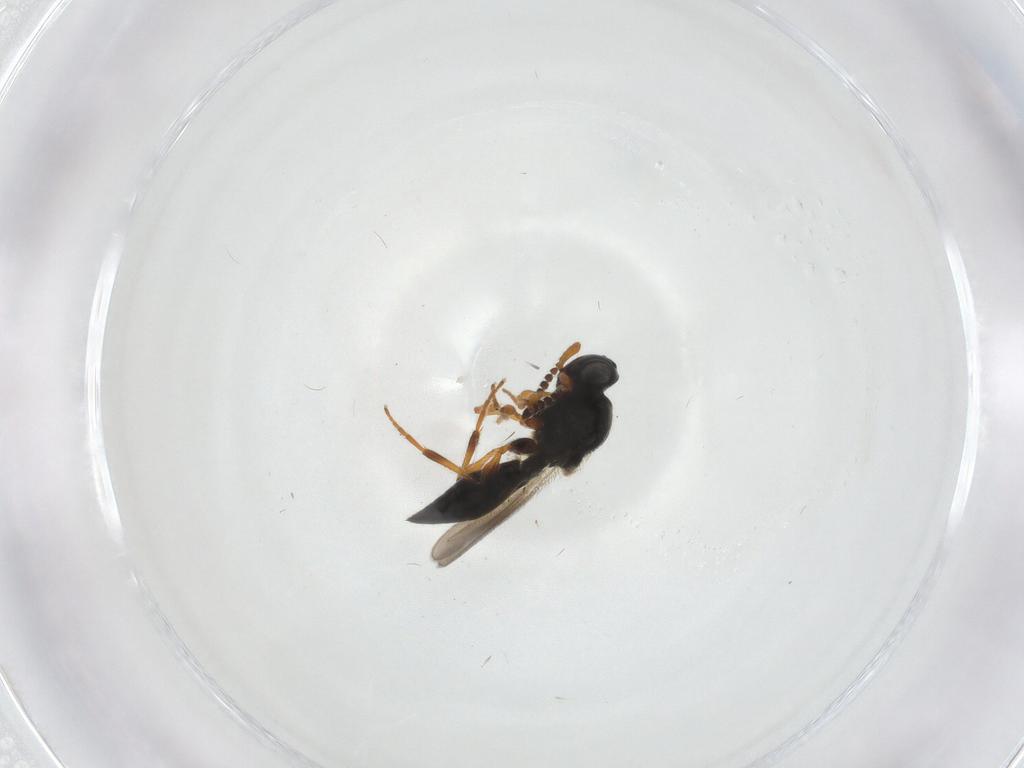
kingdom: Animalia
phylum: Arthropoda
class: Insecta
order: Hymenoptera
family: Platygastridae
